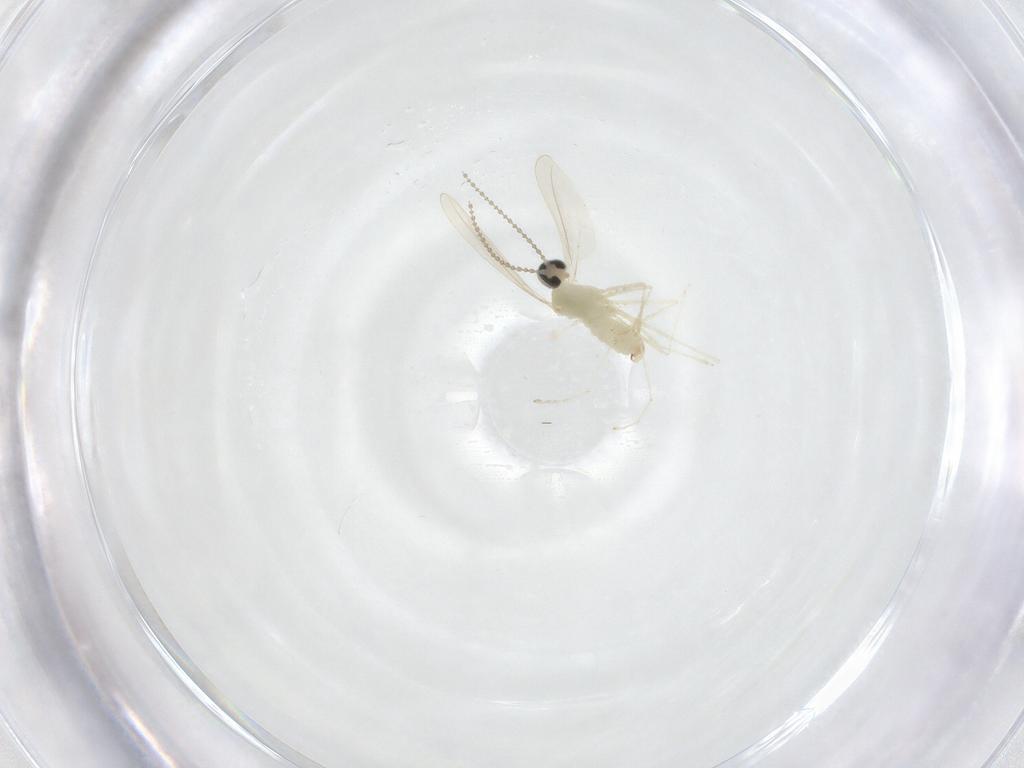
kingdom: Animalia
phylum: Arthropoda
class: Insecta
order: Diptera
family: Cecidomyiidae
